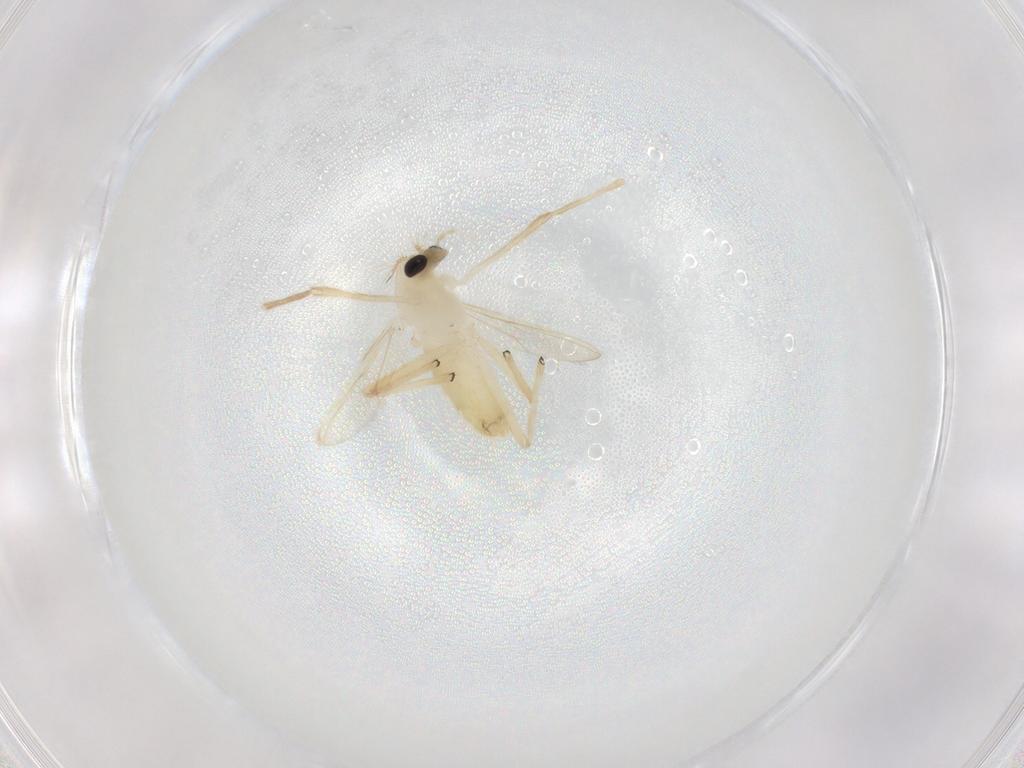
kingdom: Animalia
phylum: Arthropoda
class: Insecta
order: Diptera
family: Chironomidae
